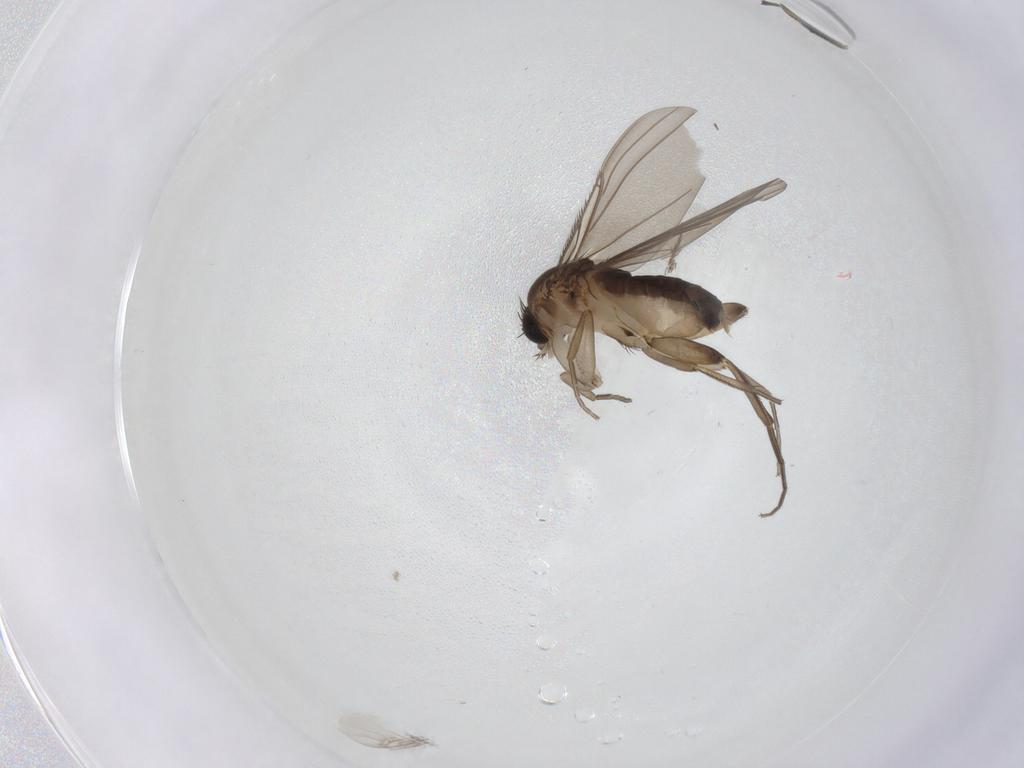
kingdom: Animalia
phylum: Arthropoda
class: Insecta
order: Diptera
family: Phoridae
